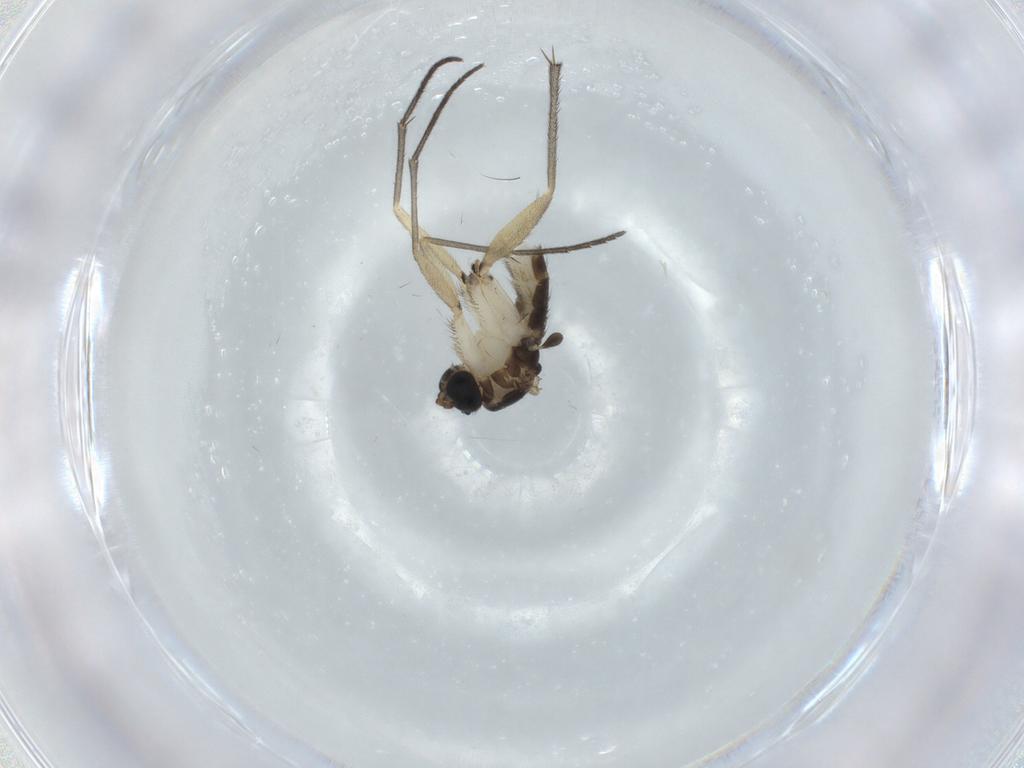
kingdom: Animalia
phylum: Arthropoda
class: Insecta
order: Diptera
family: Sciaridae
